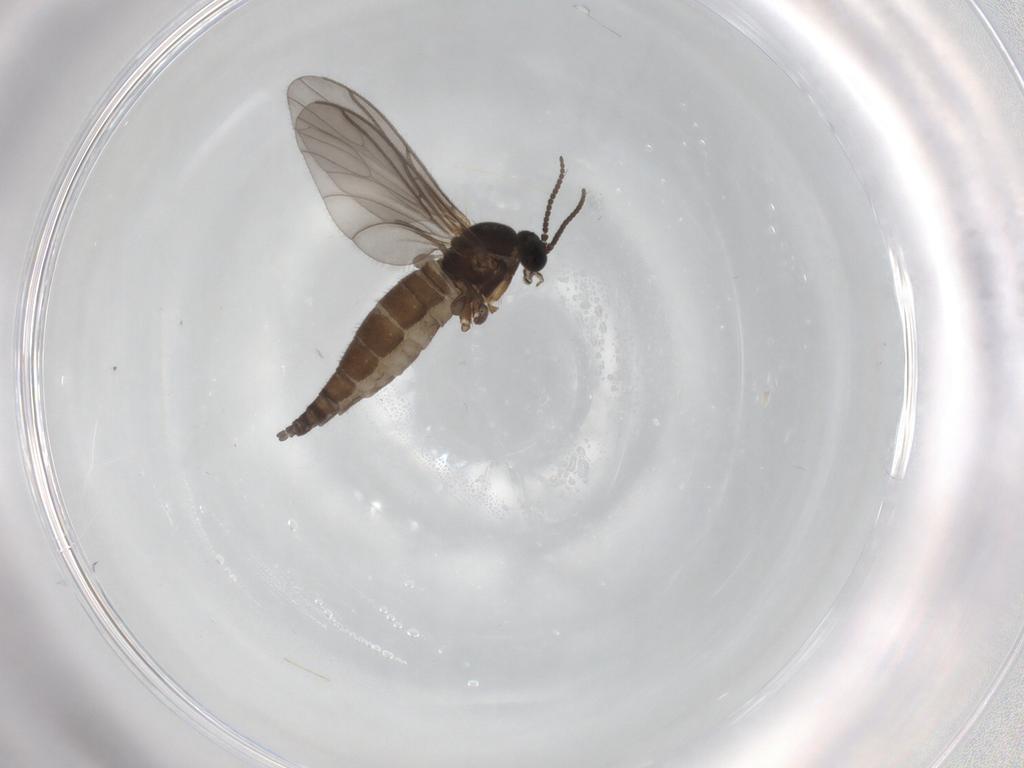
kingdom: Animalia
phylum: Arthropoda
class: Insecta
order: Diptera
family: Sciaridae
